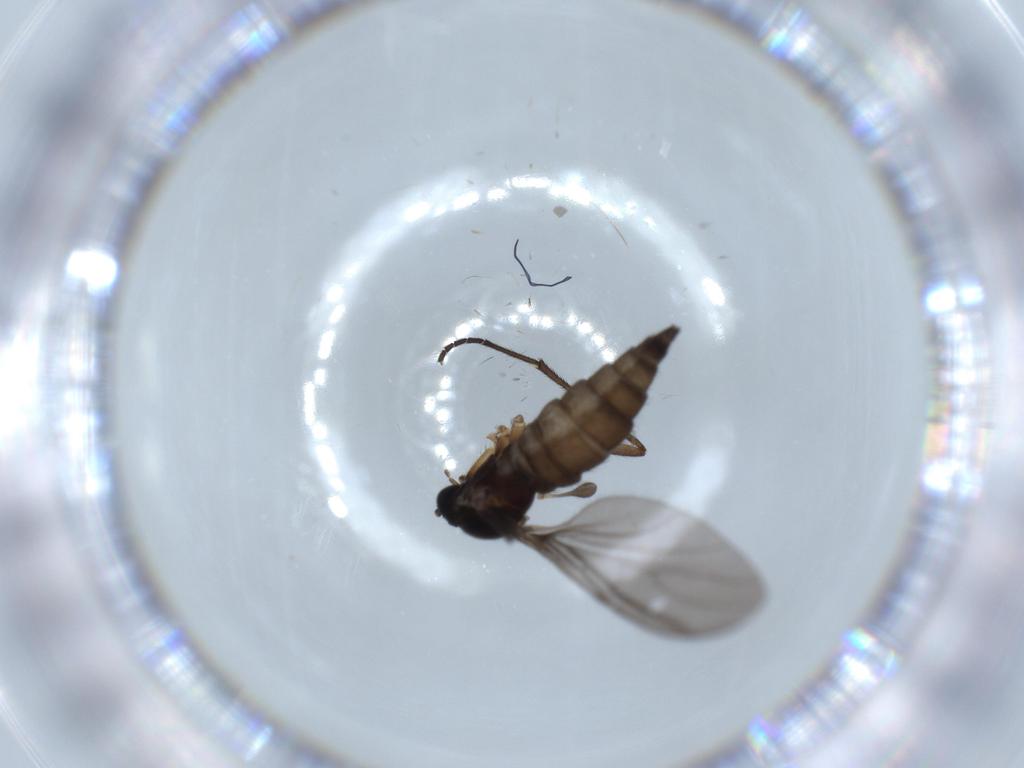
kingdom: Animalia
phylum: Arthropoda
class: Insecta
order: Diptera
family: Sciaridae
